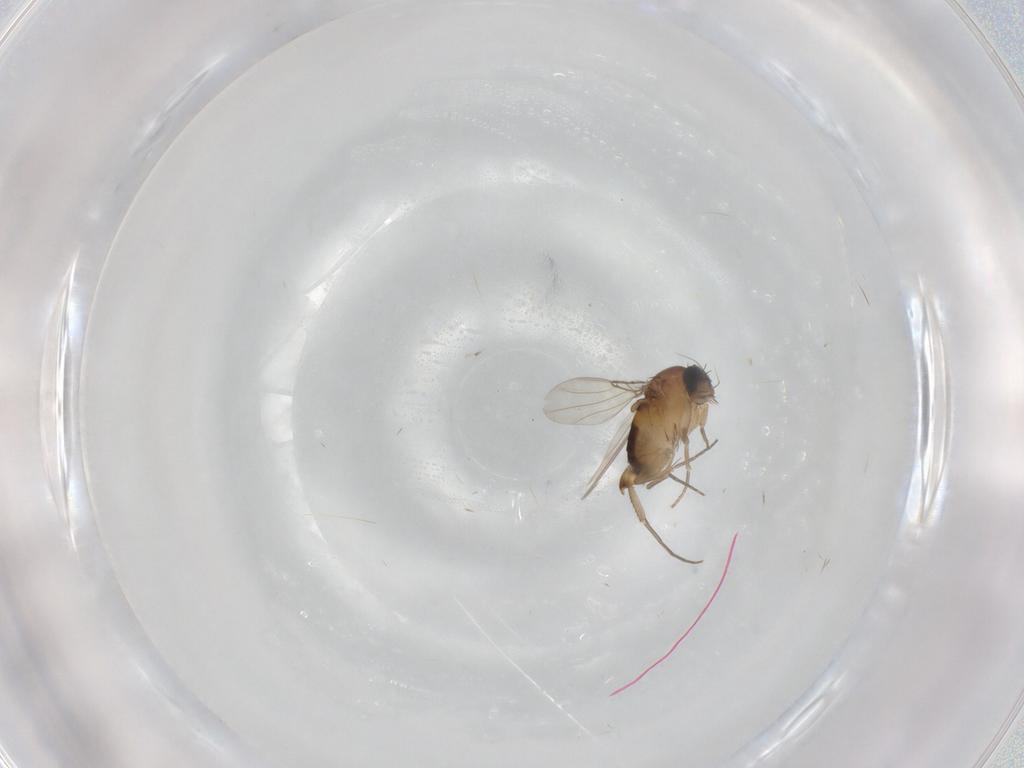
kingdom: Animalia
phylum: Arthropoda
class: Insecta
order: Diptera
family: Phoridae
